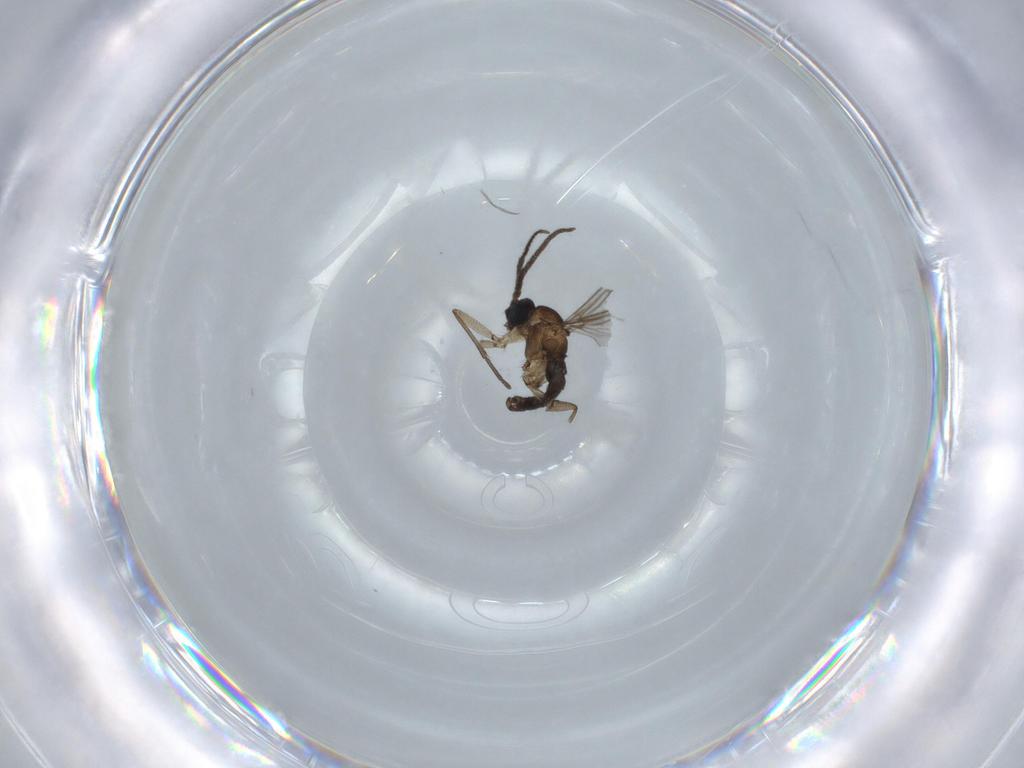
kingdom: Animalia
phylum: Arthropoda
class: Insecta
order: Diptera
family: Sciaridae
